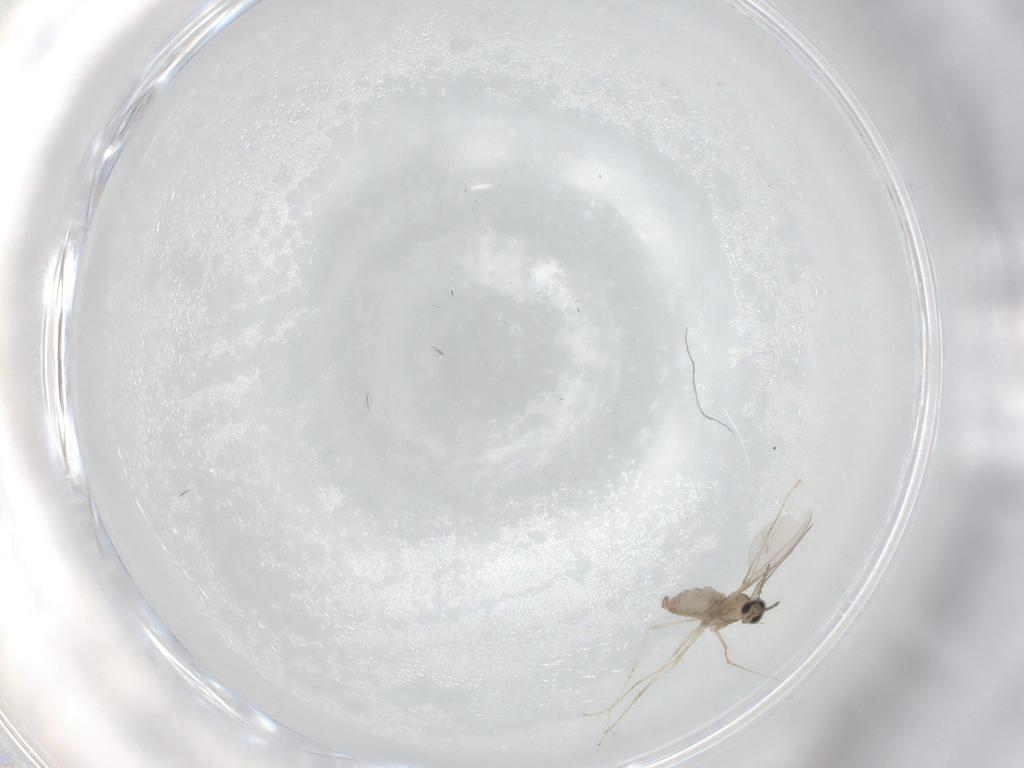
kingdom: Animalia
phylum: Arthropoda
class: Insecta
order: Diptera
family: Cecidomyiidae
